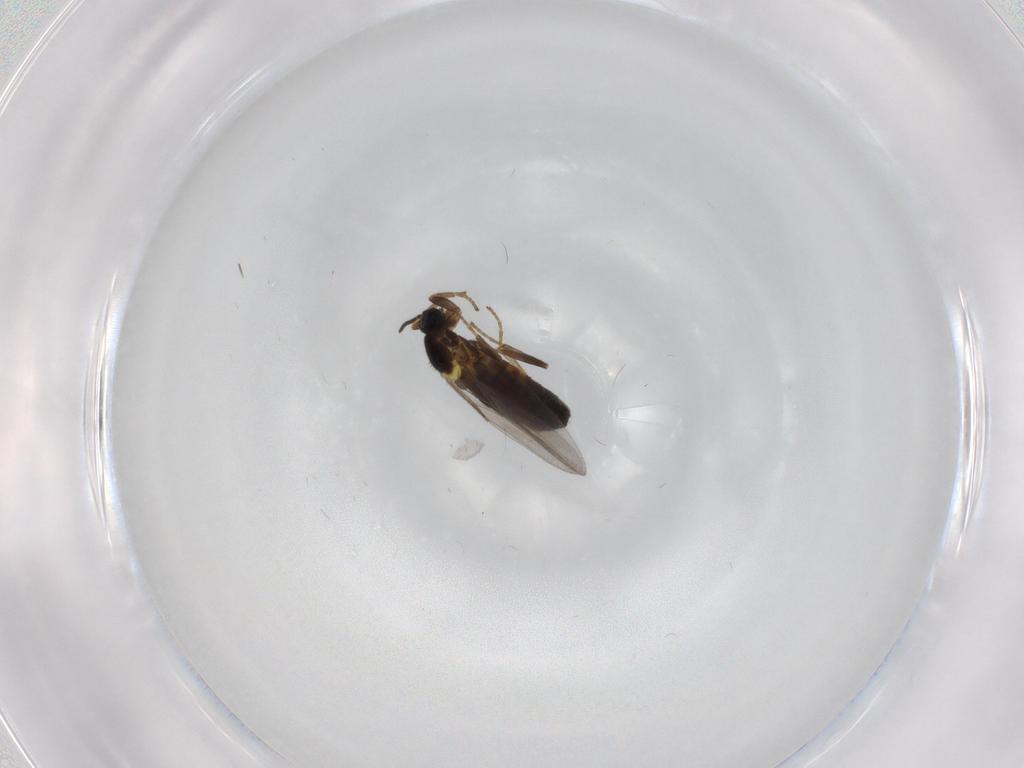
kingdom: Animalia
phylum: Arthropoda
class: Insecta
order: Diptera
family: Scatopsidae
